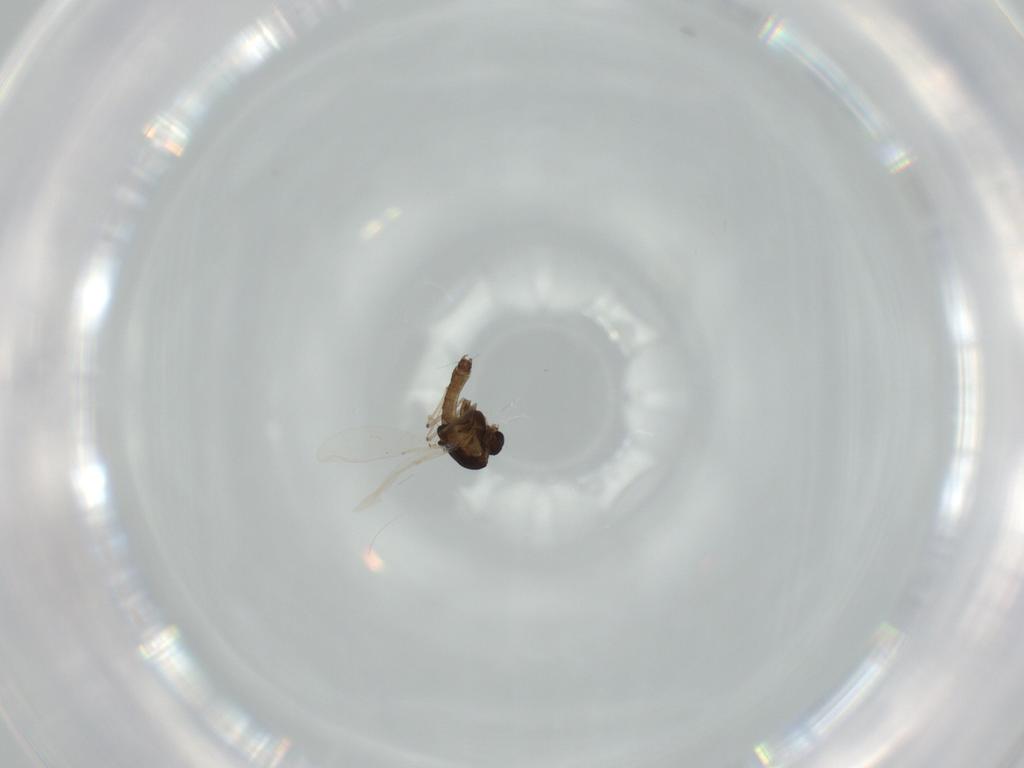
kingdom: Animalia
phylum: Arthropoda
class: Insecta
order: Diptera
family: Chironomidae
